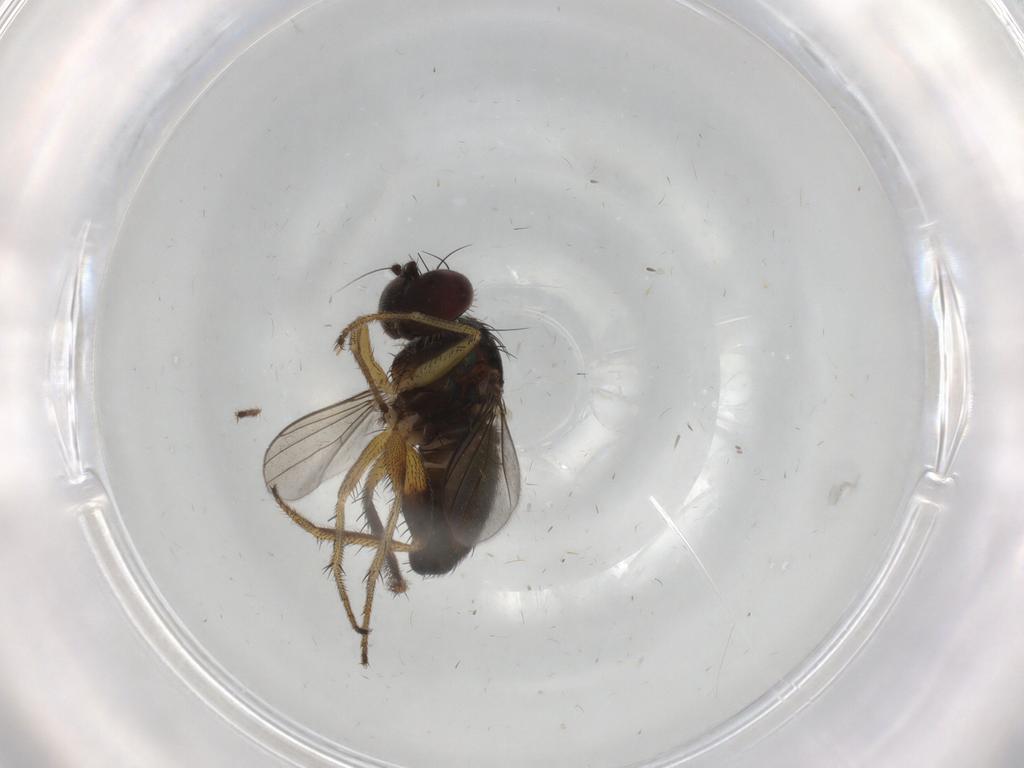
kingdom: Animalia
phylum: Arthropoda
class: Insecta
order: Diptera
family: Dolichopodidae
